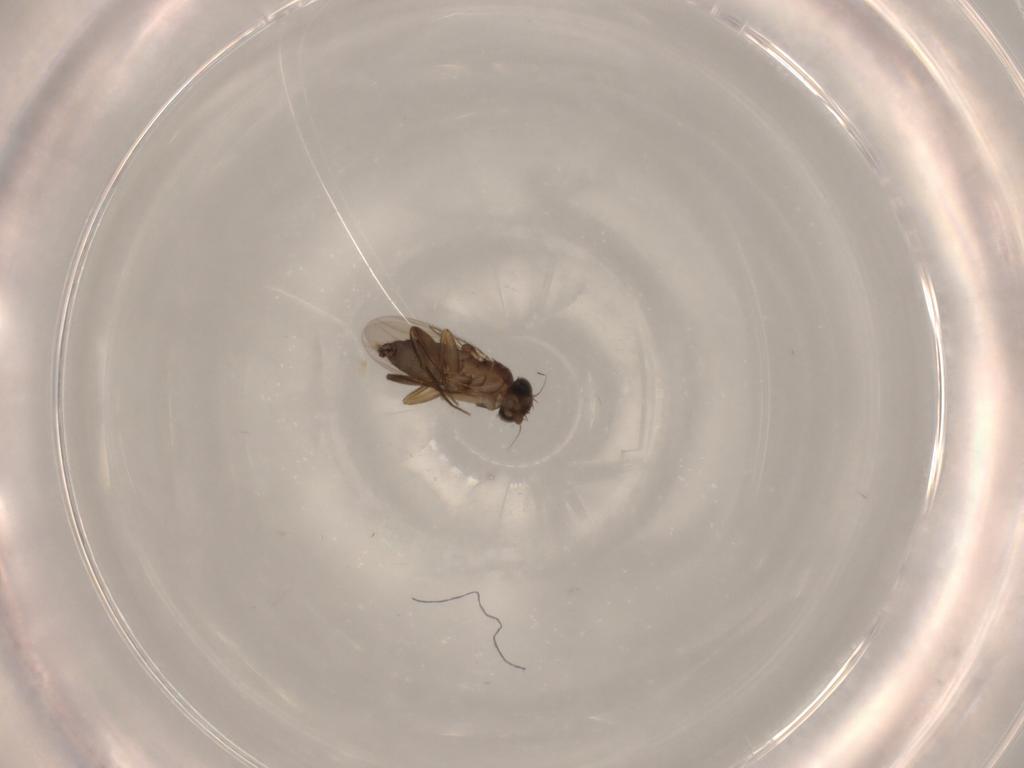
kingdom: Animalia
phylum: Arthropoda
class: Insecta
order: Diptera
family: Phoridae
